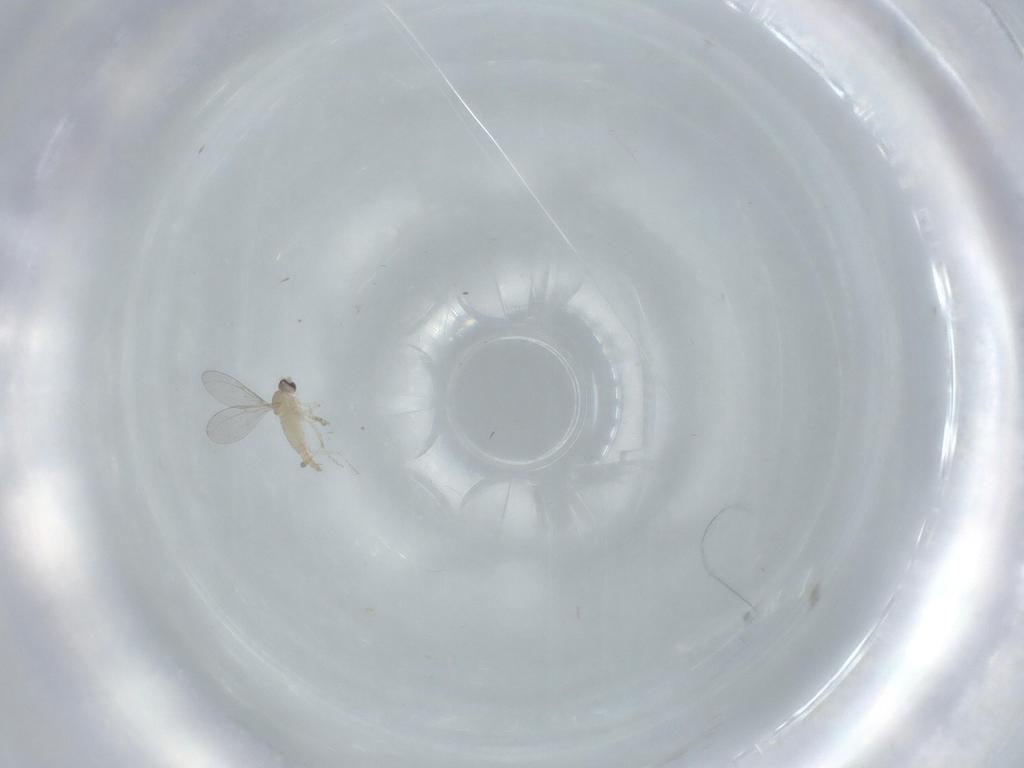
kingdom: Animalia
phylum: Arthropoda
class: Insecta
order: Diptera
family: Cecidomyiidae
